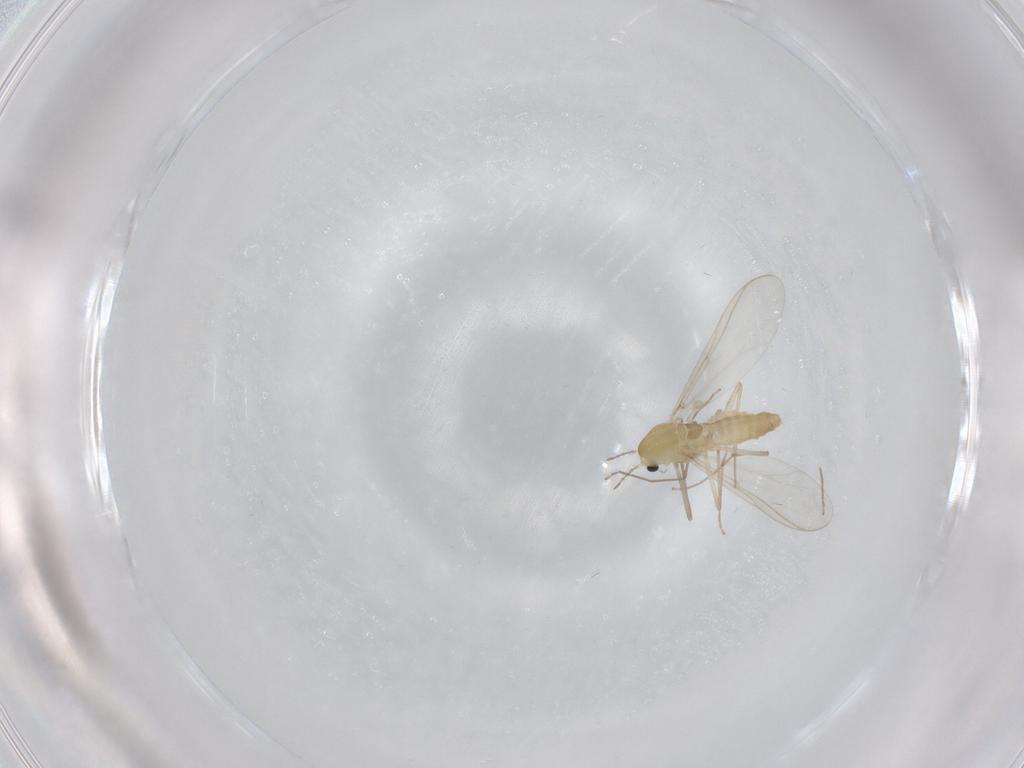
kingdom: Animalia
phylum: Arthropoda
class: Insecta
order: Diptera
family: Chironomidae
